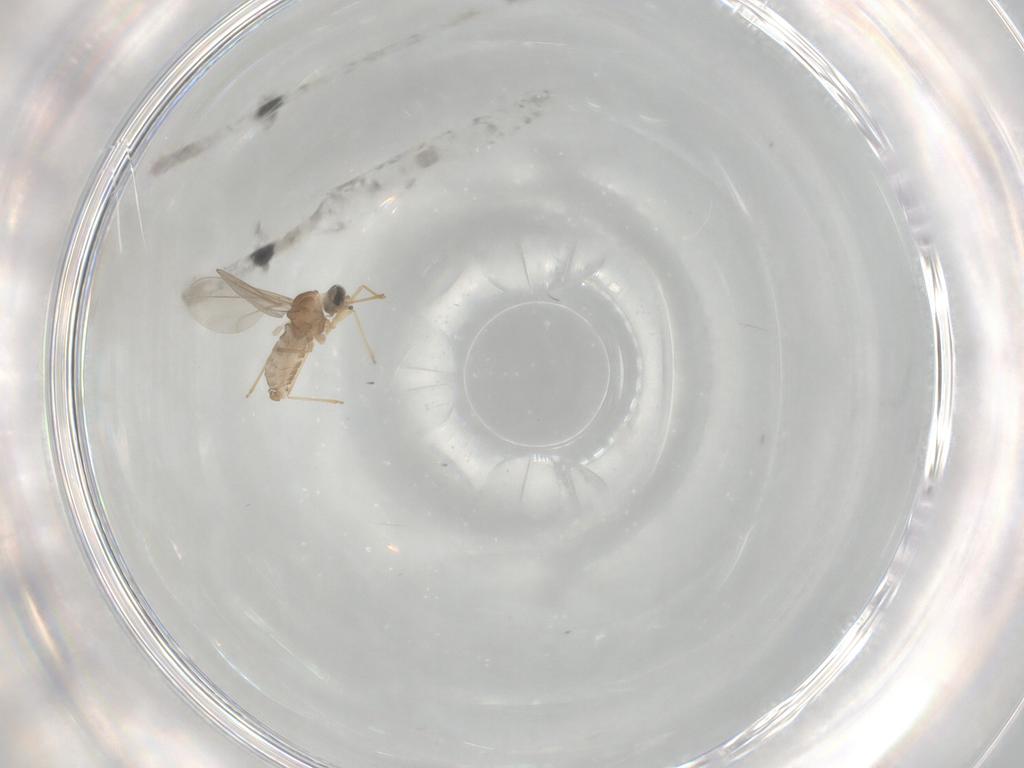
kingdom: Animalia
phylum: Arthropoda
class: Insecta
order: Diptera
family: Cecidomyiidae
